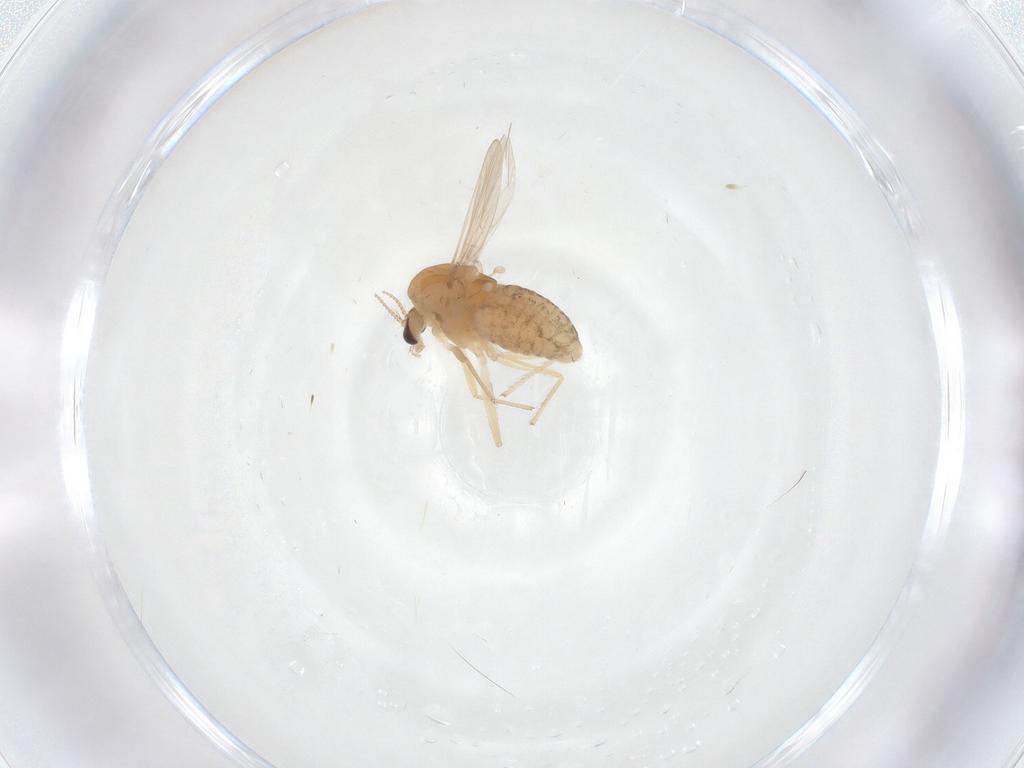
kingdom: Animalia
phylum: Arthropoda
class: Insecta
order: Diptera
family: Chironomidae
